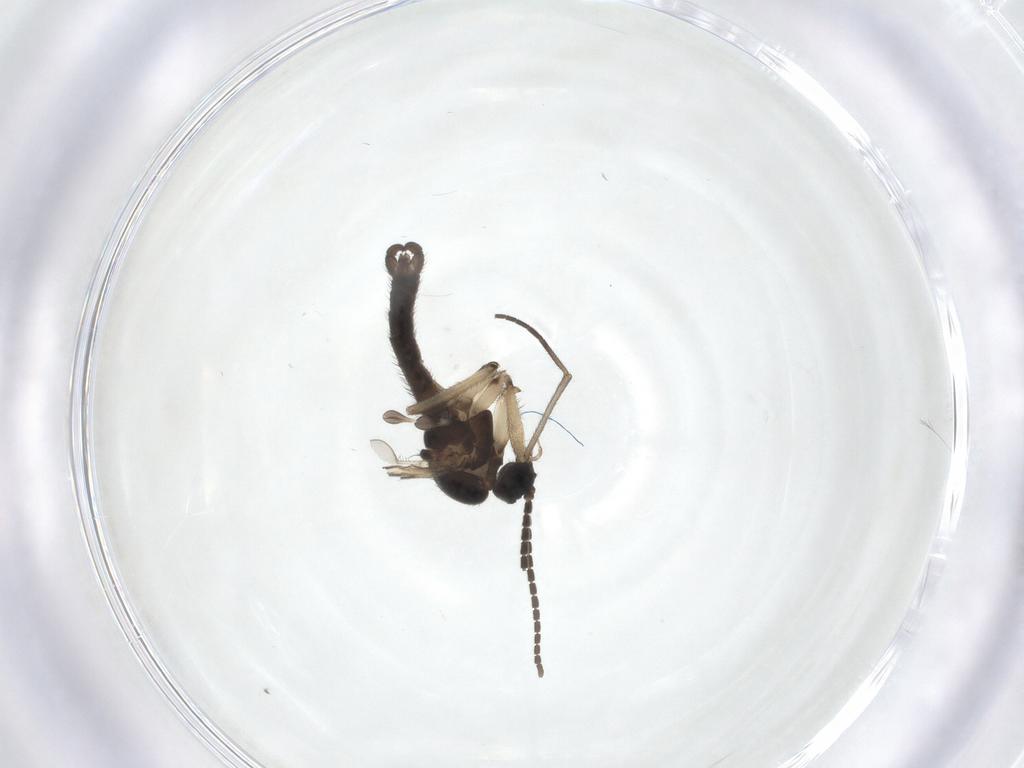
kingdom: Animalia
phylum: Arthropoda
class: Insecta
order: Diptera
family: Sciaridae
